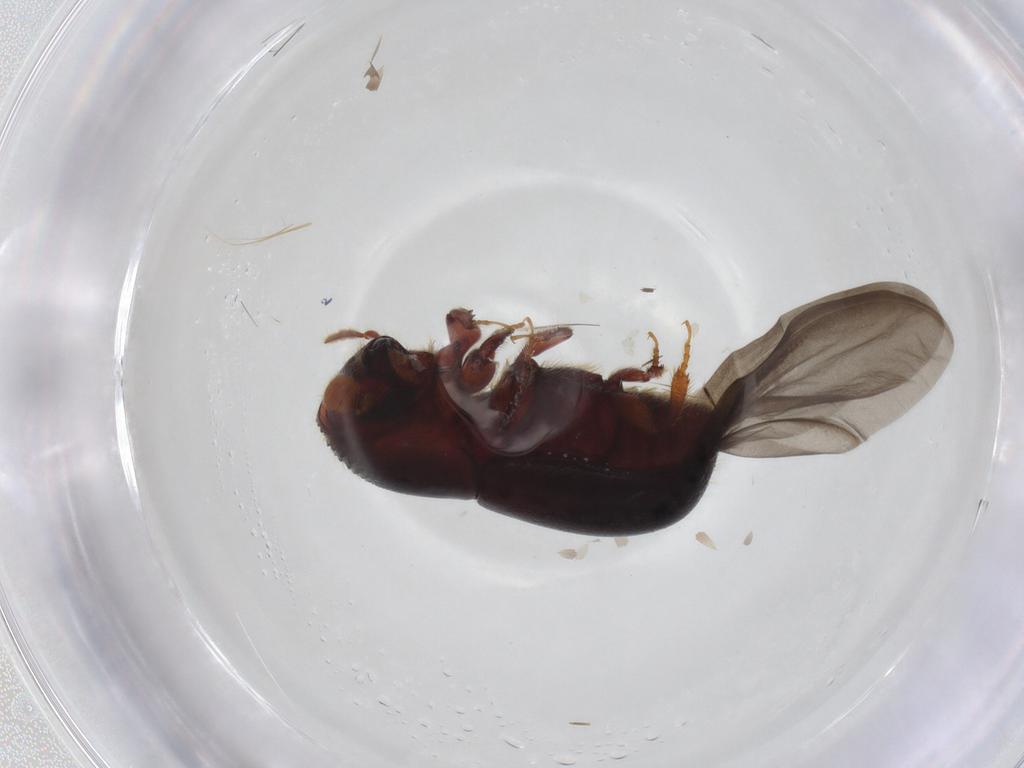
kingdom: Animalia
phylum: Arthropoda
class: Insecta
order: Coleoptera
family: Curculionidae
